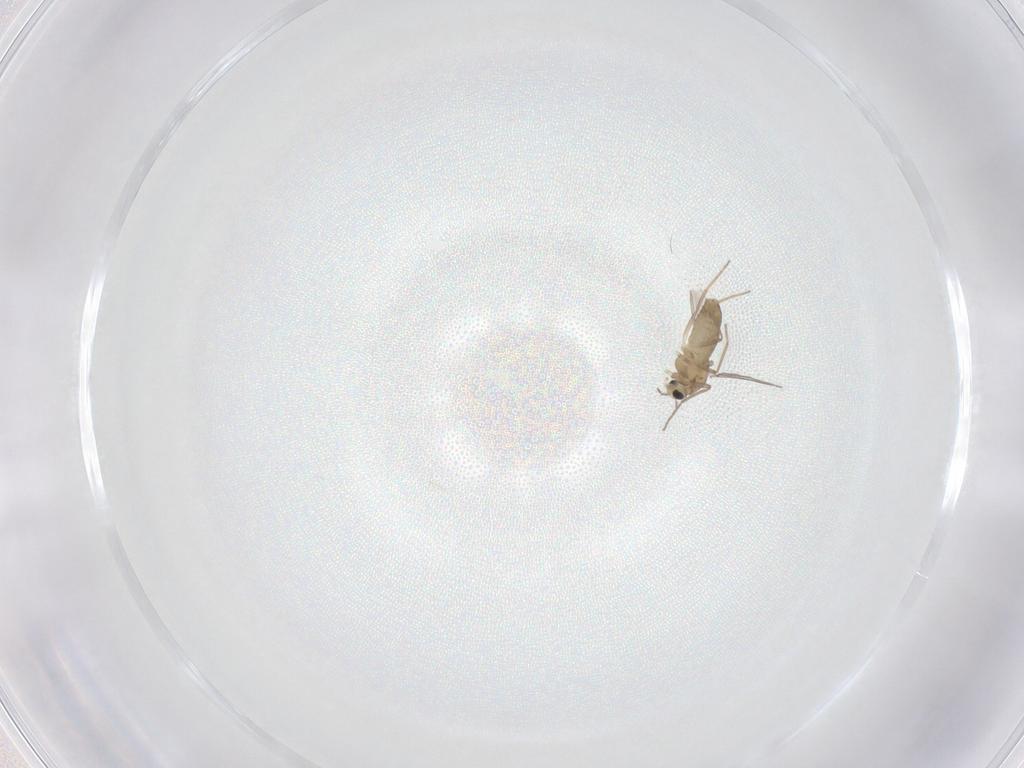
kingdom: Animalia
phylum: Arthropoda
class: Insecta
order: Diptera
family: Chironomidae
